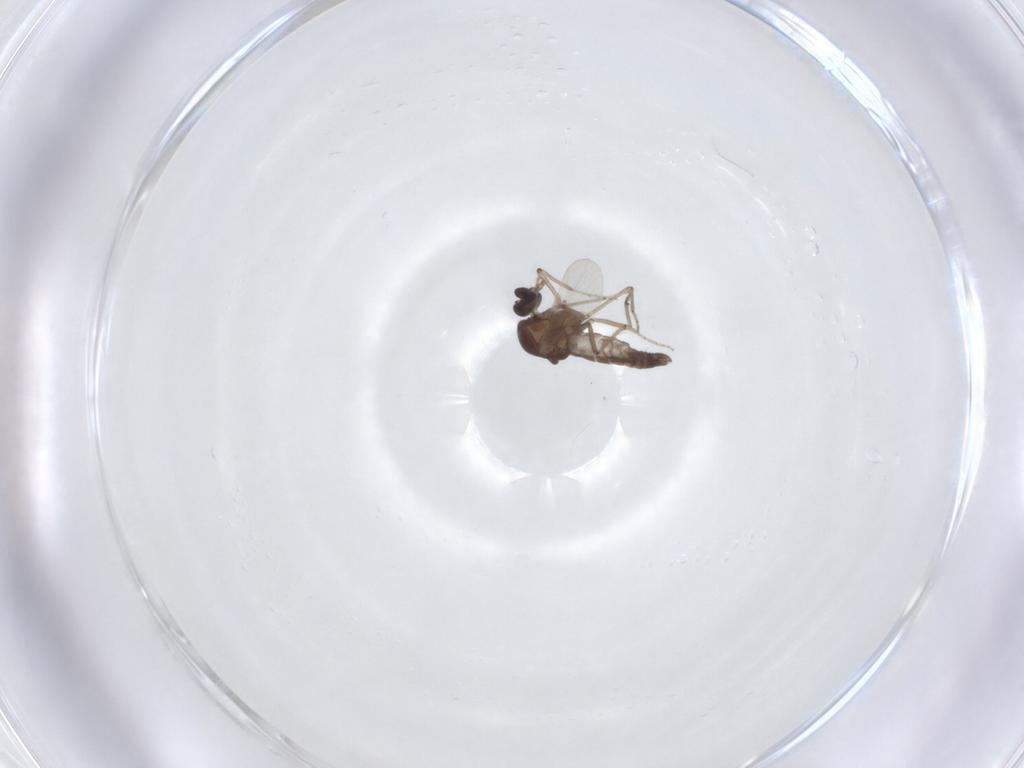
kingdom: Animalia
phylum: Arthropoda
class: Insecta
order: Diptera
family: Ceratopogonidae
